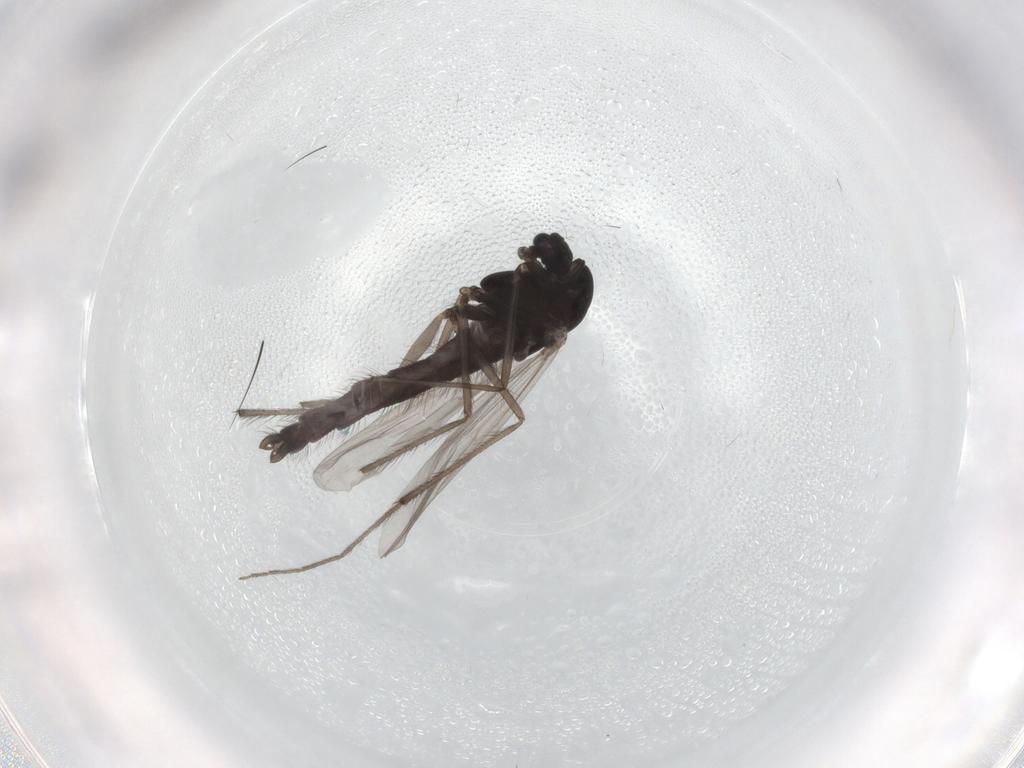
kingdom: Animalia
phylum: Arthropoda
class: Insecta
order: Diptera
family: Chironomidae
